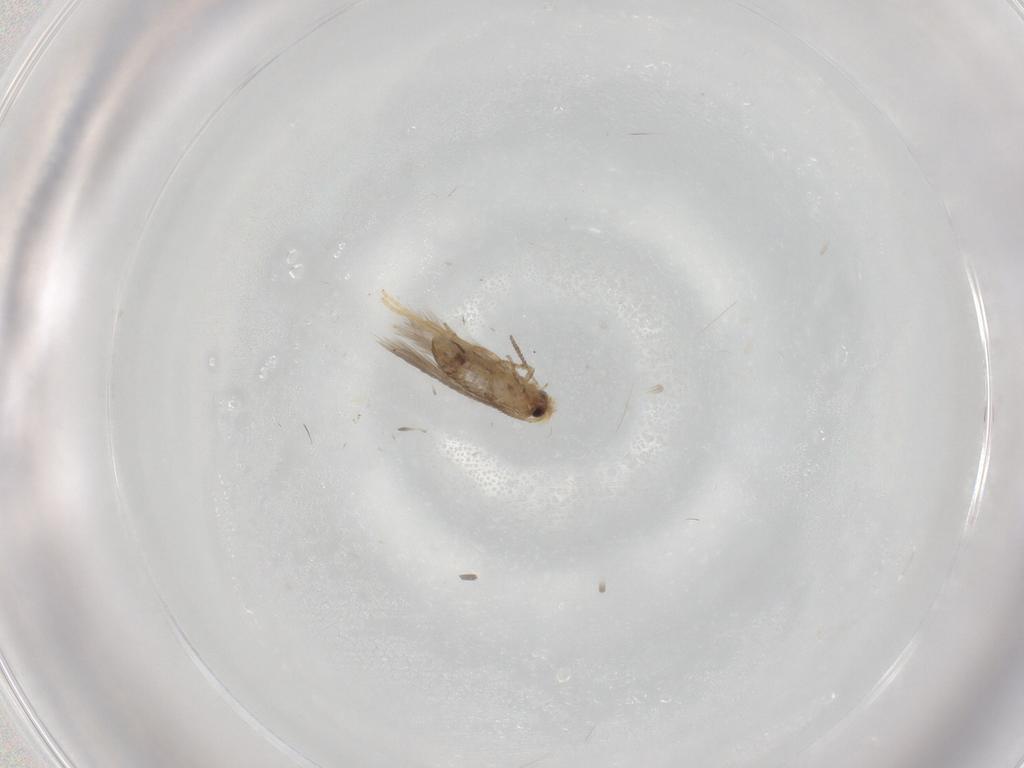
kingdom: Animalia
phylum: Arthropoda
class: Insecta
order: Lepidoptera
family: Nepticulidae
